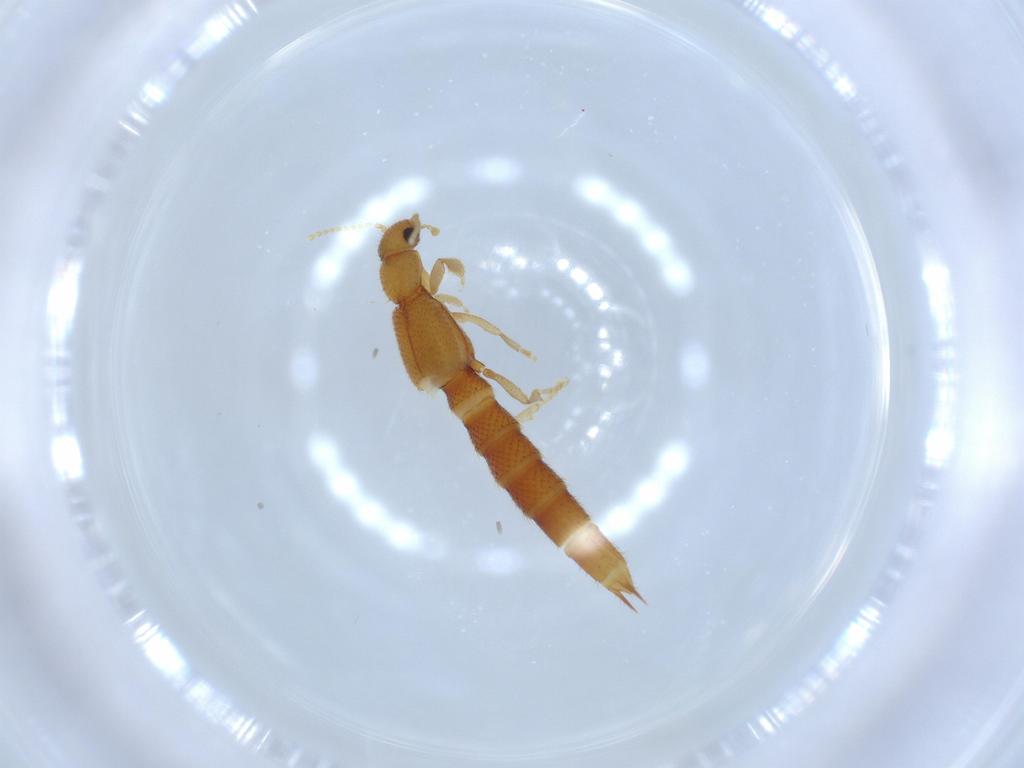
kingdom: Animalia
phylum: Arthropoda
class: Insecta
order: Coleoptera
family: Staphylinidae
